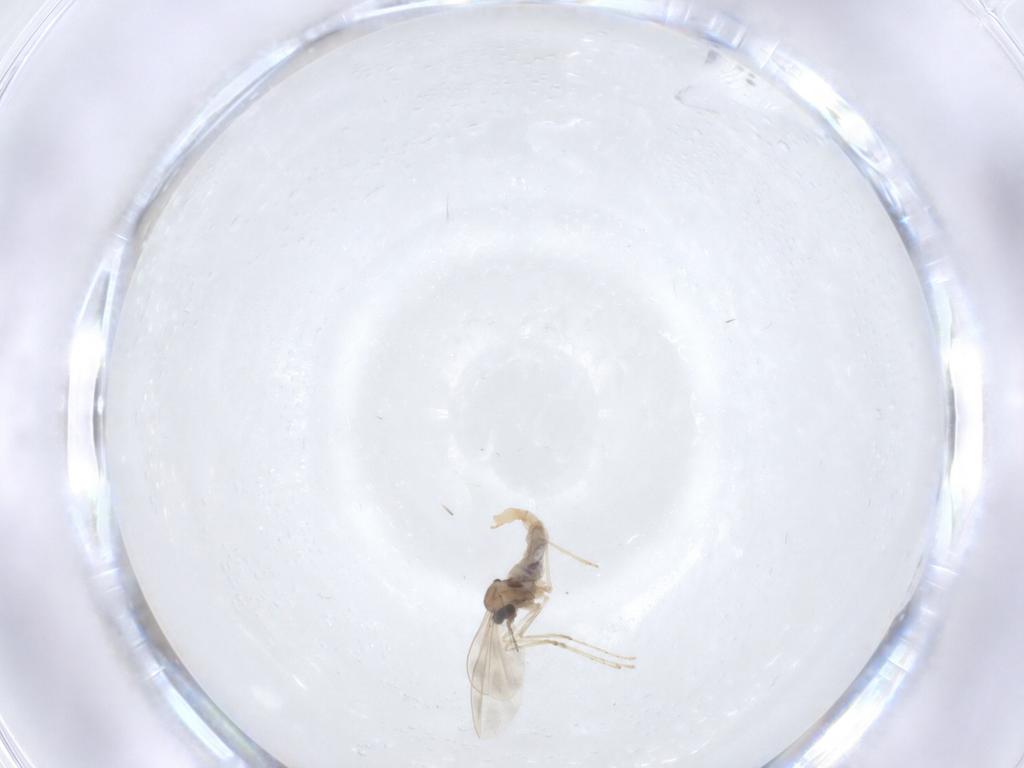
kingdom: Animalia
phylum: Arthropoda
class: Insecta
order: Diptera
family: Cecidomyiidae
